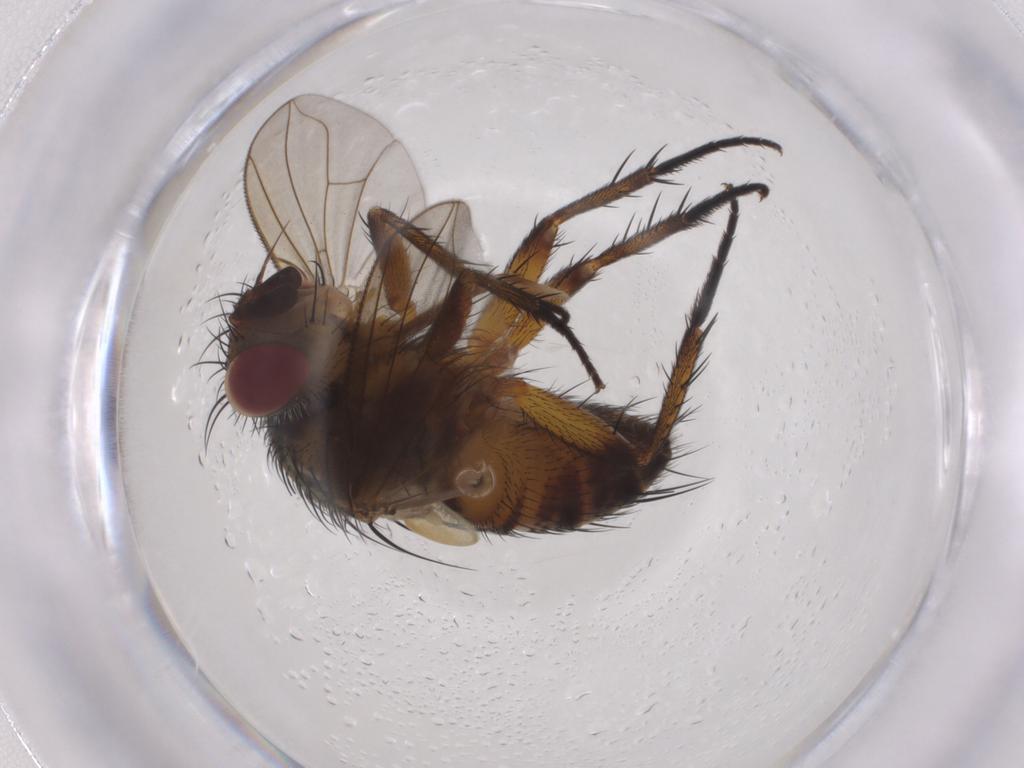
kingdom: Animalia
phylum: Arthropoda
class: Insecta
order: Diptera
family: Tachinidae
